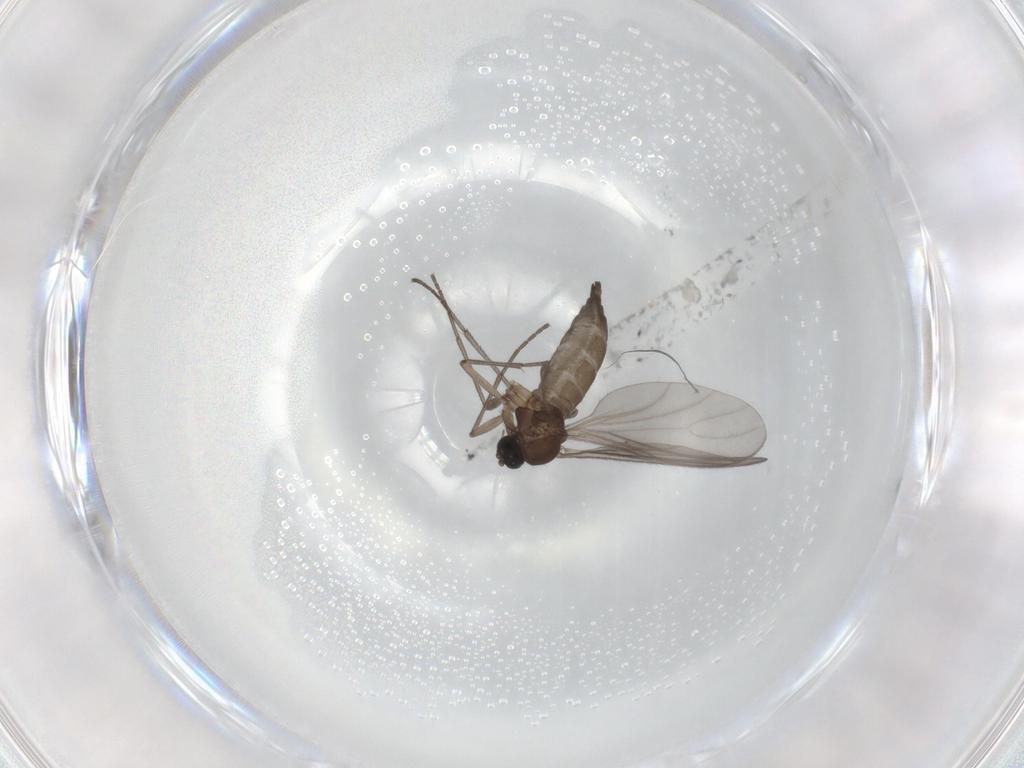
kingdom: Animalia
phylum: Arthropoda
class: Insecta
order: Diptera
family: Sciaridae
